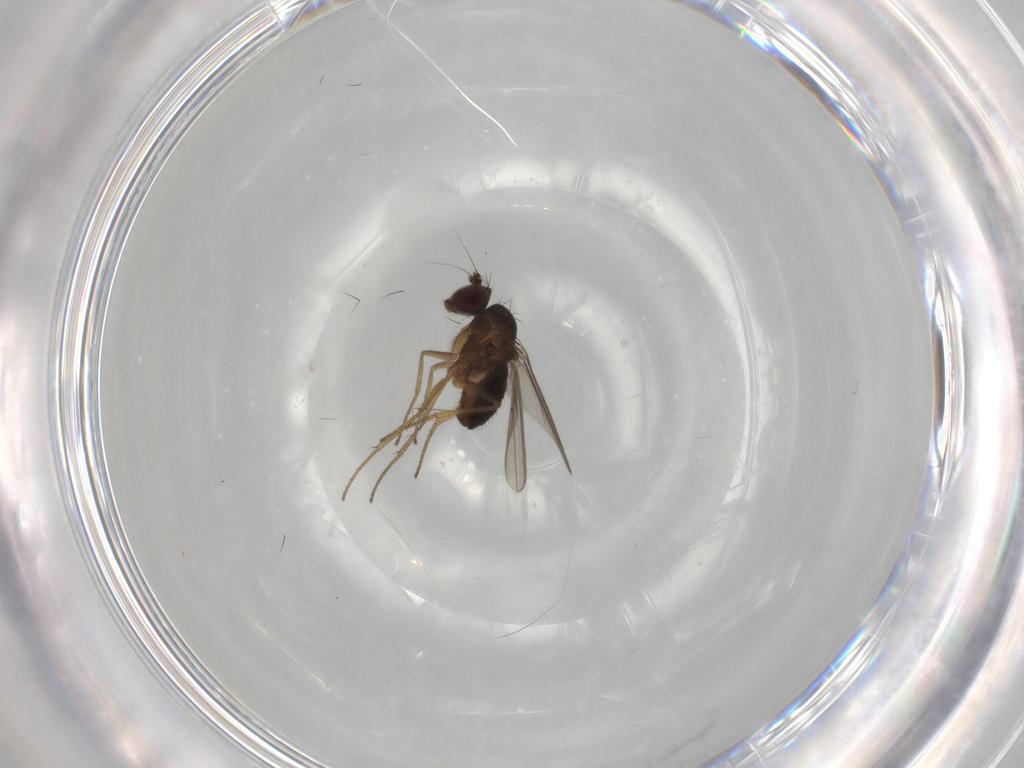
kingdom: Animalia
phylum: Arthropoda
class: Insecta
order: Diptera
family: Dolichopodidae
